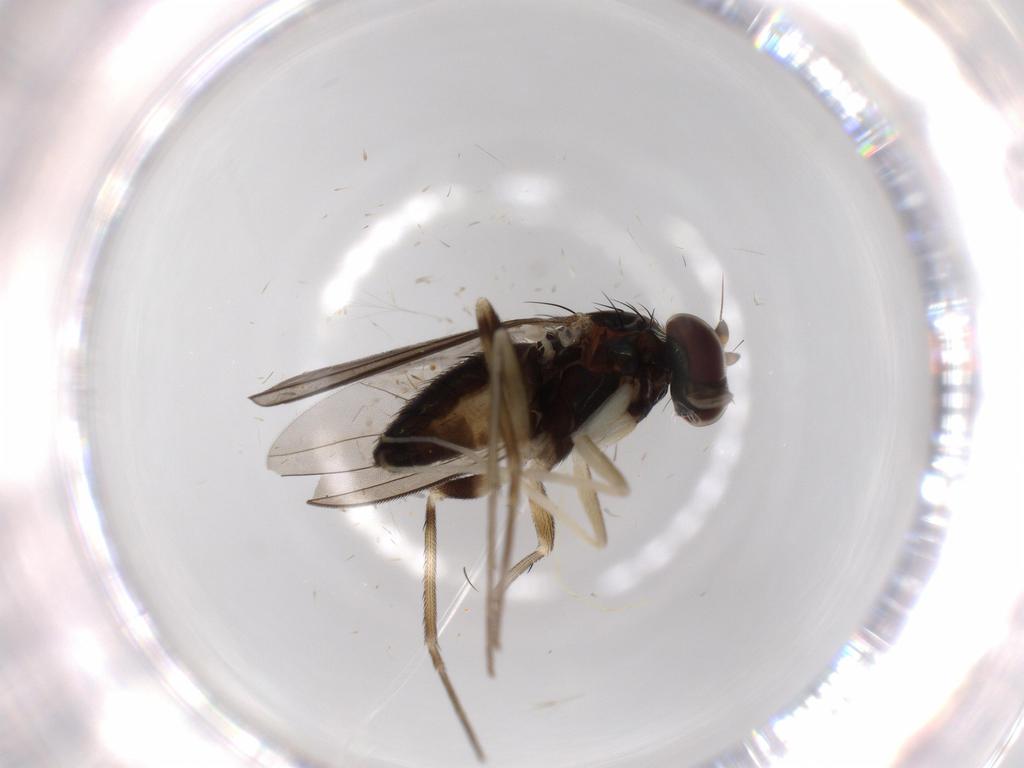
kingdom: Animalia
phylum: Arthropoda
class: Insecta
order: Diptera
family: Dolichopodidae
